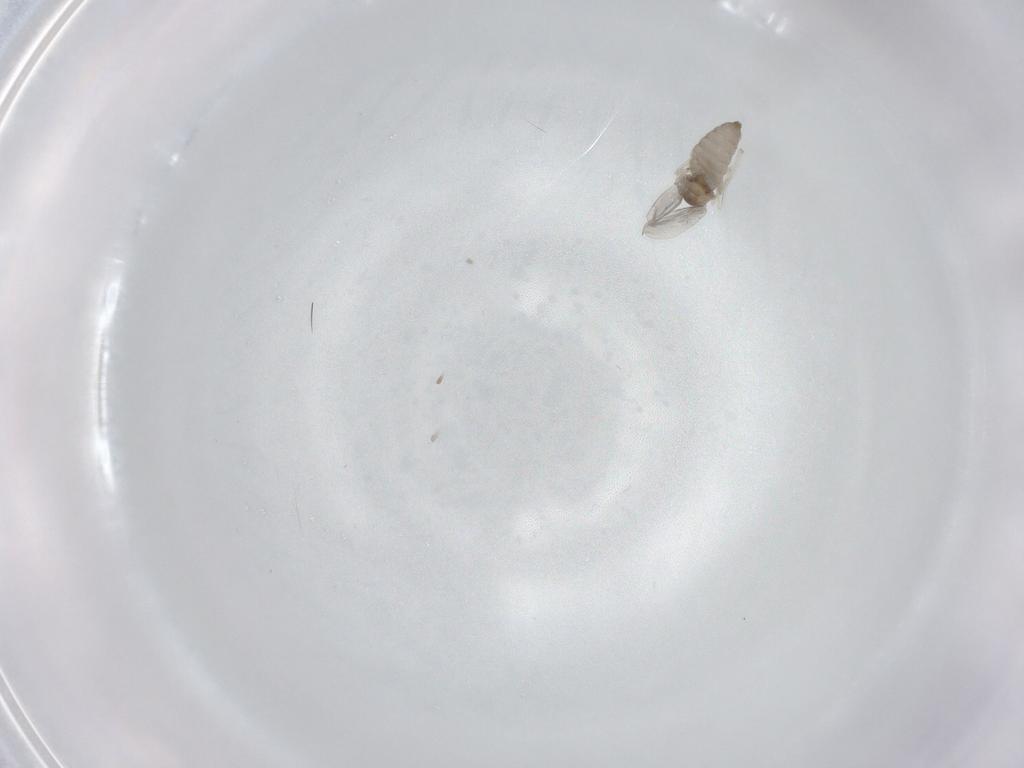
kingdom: Animalia
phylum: Arthropoda
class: Insecta
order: Diptera
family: Cecidomyiidae
